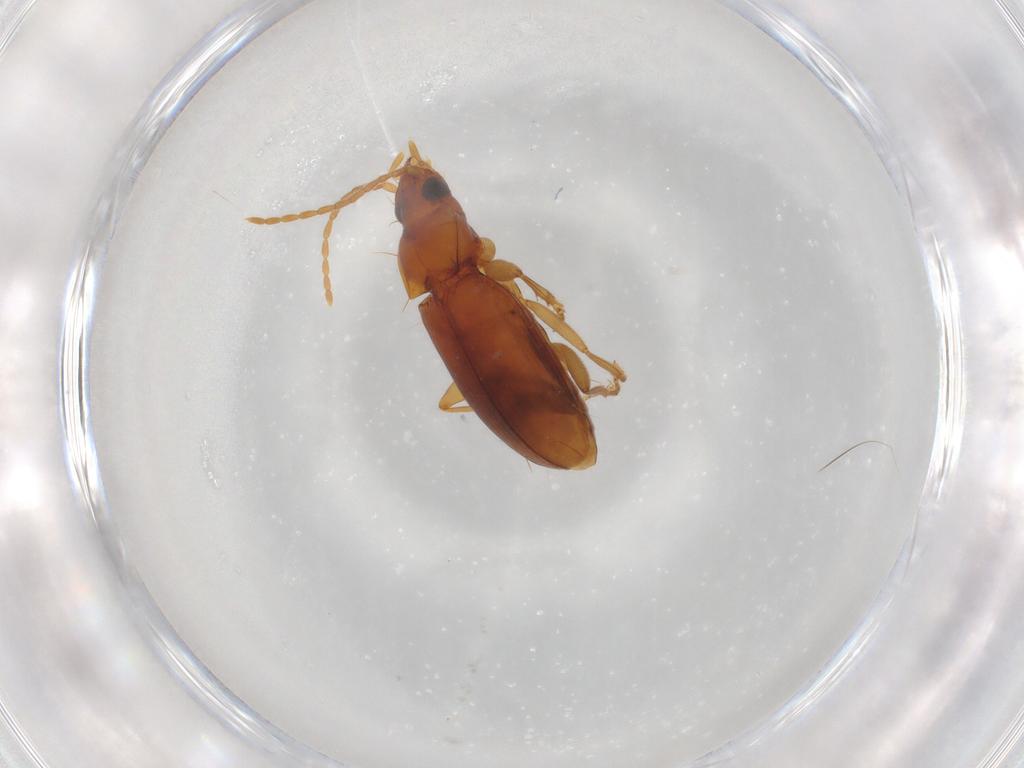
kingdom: Animalia
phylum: Arthropoda
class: Insecta
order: Coleoptera
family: Carabidae
